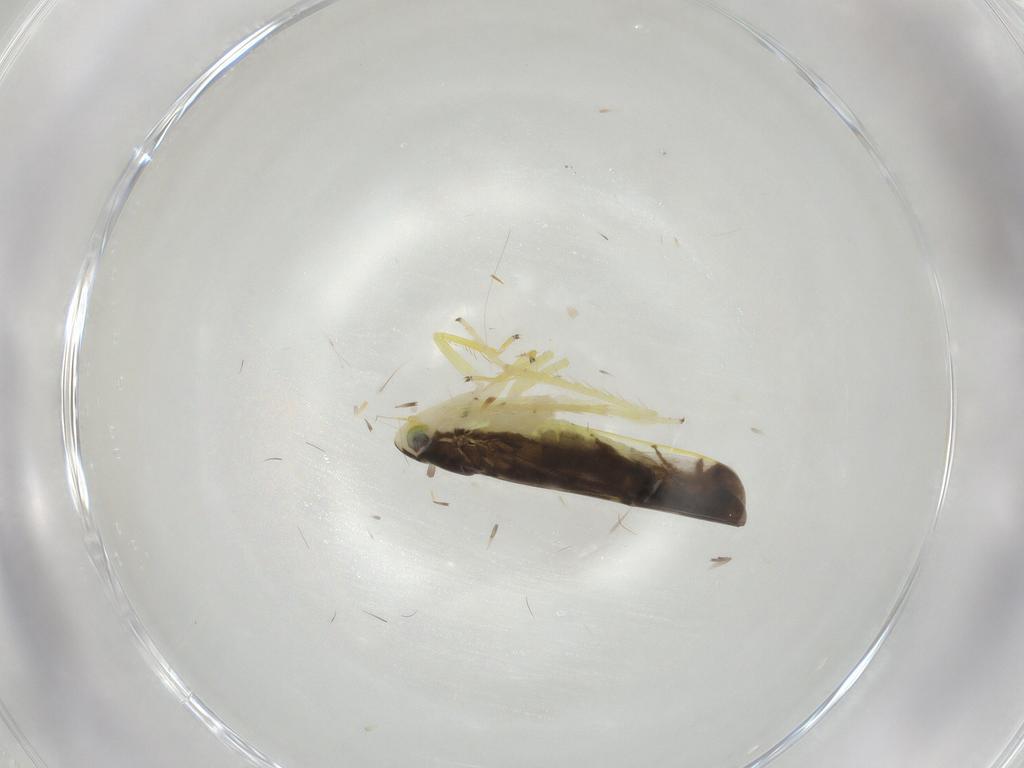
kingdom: Animalia
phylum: Arthropoda
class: Insecta
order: Hemiptera
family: Cicadellidae
